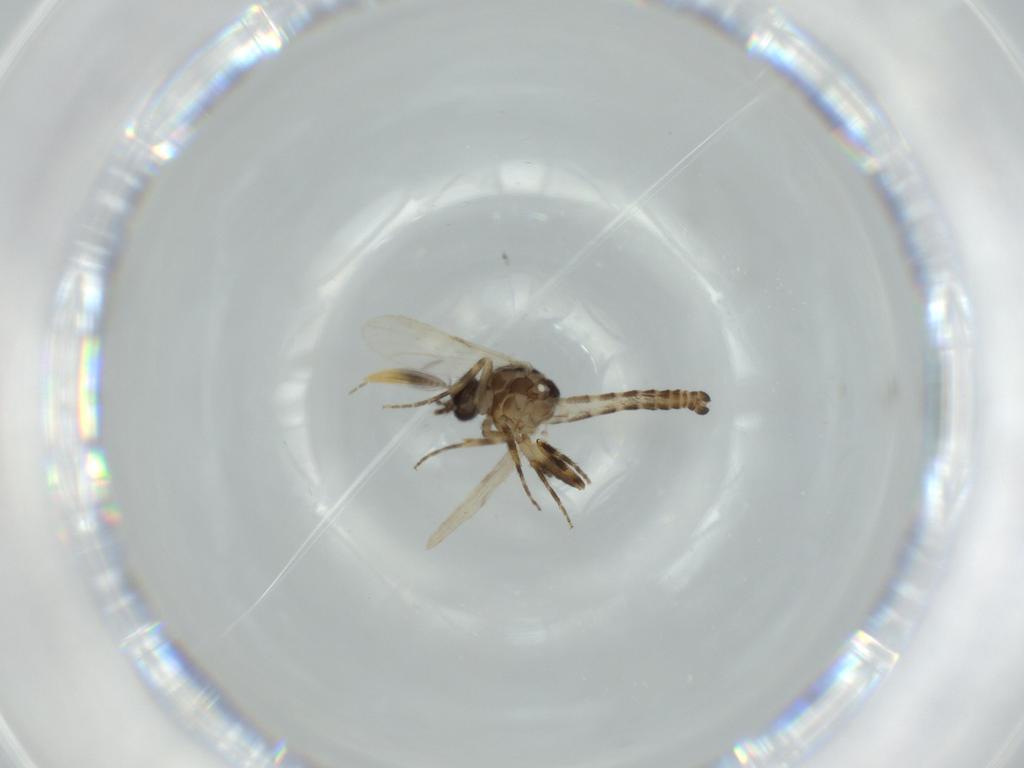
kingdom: Animalia
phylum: Arthropoda
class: Insecta
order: Diptera
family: Ceratopogonidae
